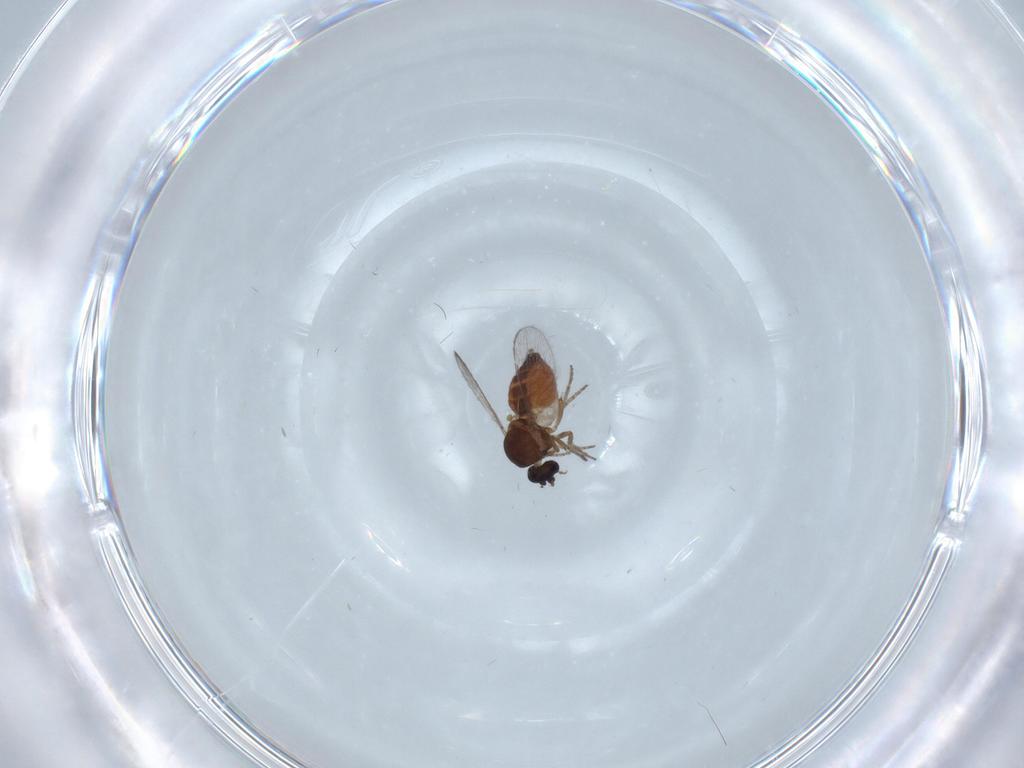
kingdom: Animalia
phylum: Arthropoda
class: Insecta
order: Diptera
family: Ceratopogonidae
